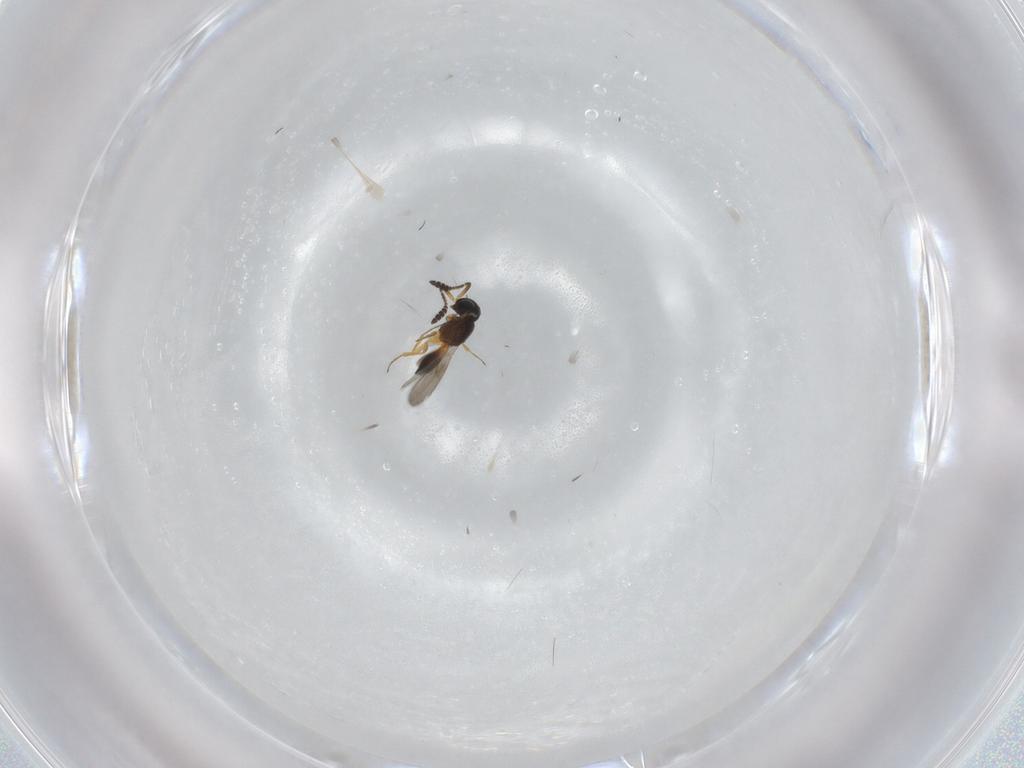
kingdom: Animalia
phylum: Arthropoda
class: Insecta
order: Hymenoptera
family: Scelionidae
